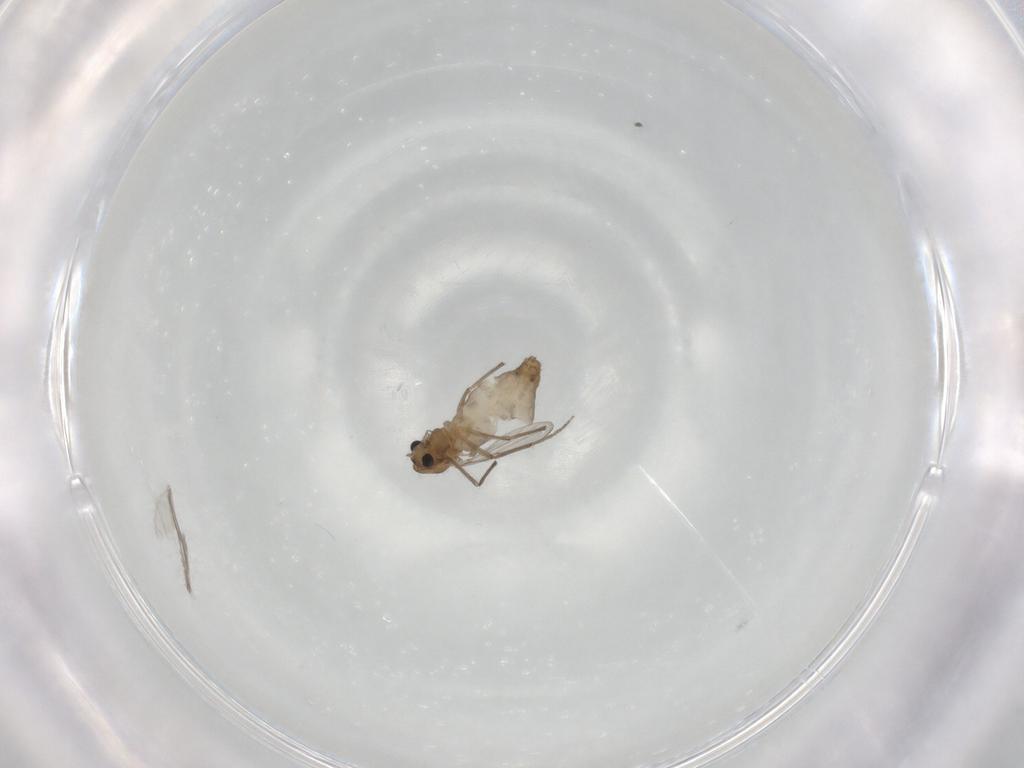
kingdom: Animalia
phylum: Arthropoda
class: Insecta
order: Diptera
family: Chironomidae
